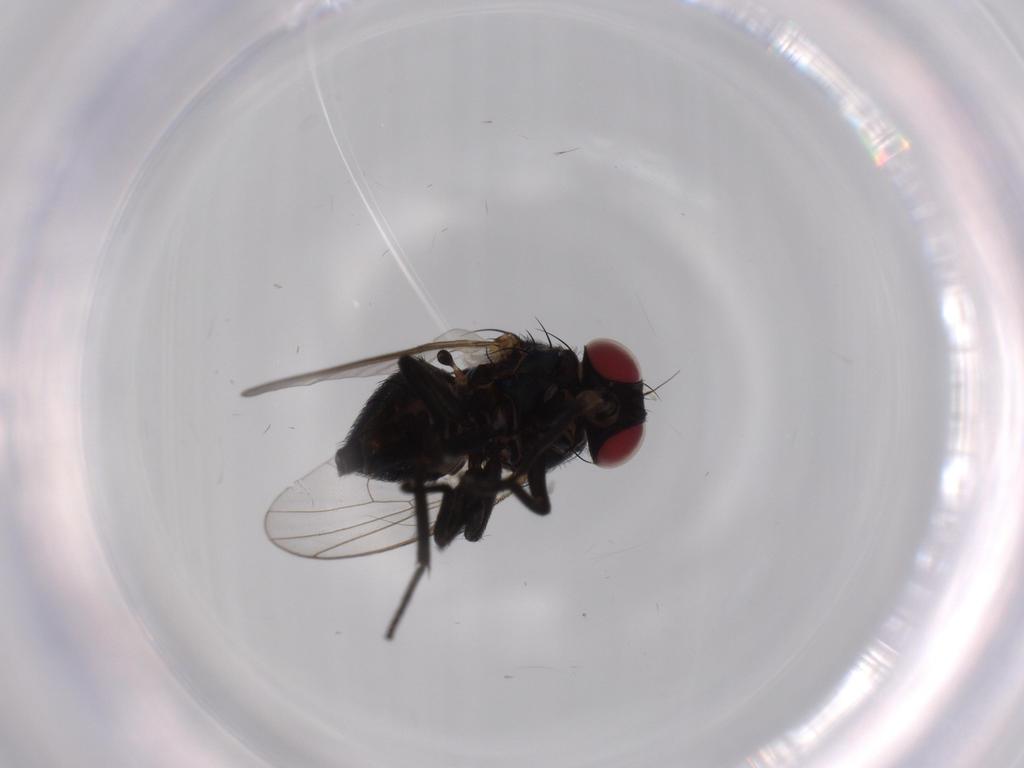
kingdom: Animalia
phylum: Arthropoda
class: Insecta
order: Diptera
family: Agromyzidae
